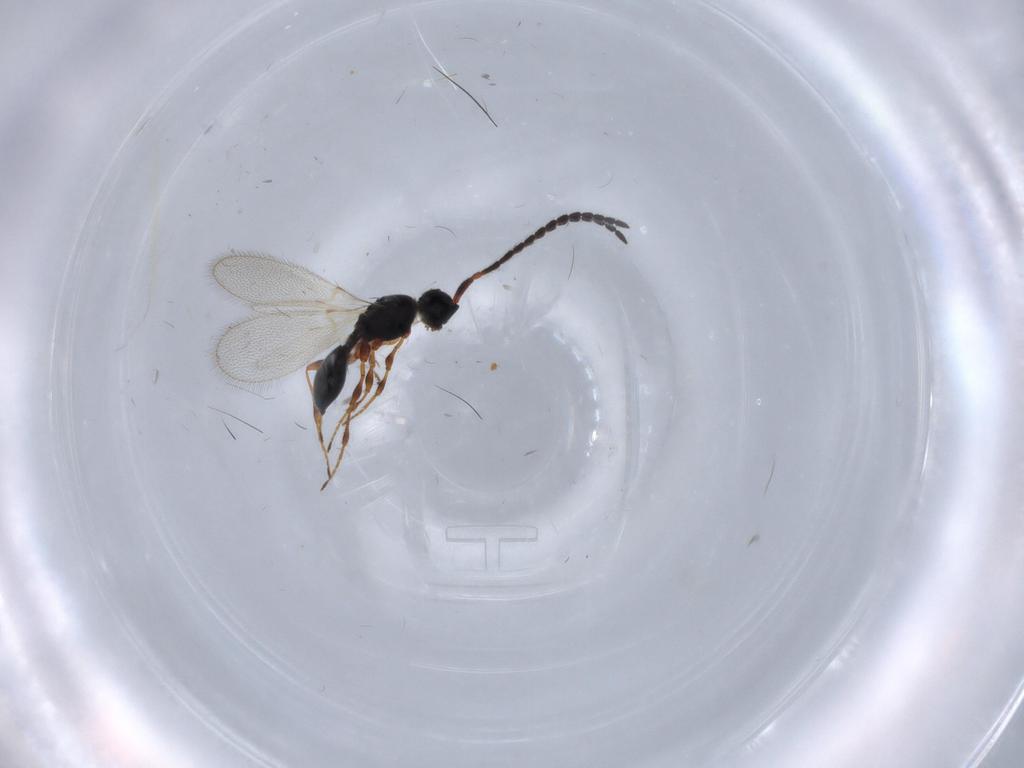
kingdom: Animalia
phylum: Arthropoda
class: Insecta
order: Hymenoptera
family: Diapriidae
